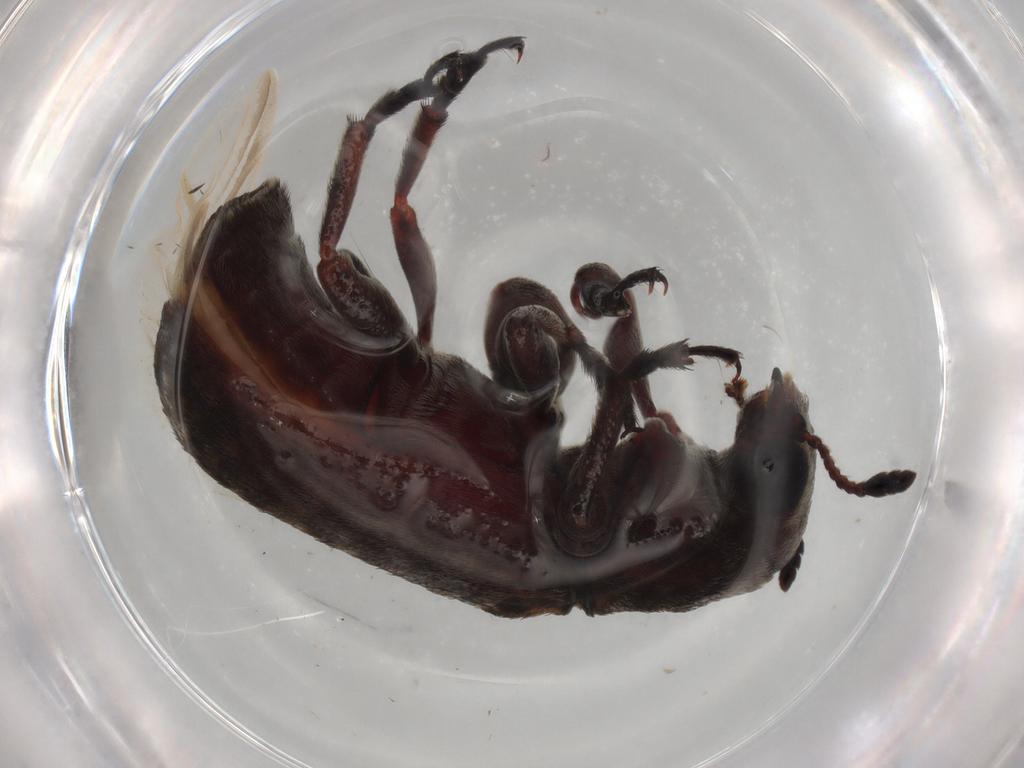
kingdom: Animalia
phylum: Arthropoda
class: Insecta
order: Coleoptera
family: Anthribidae
